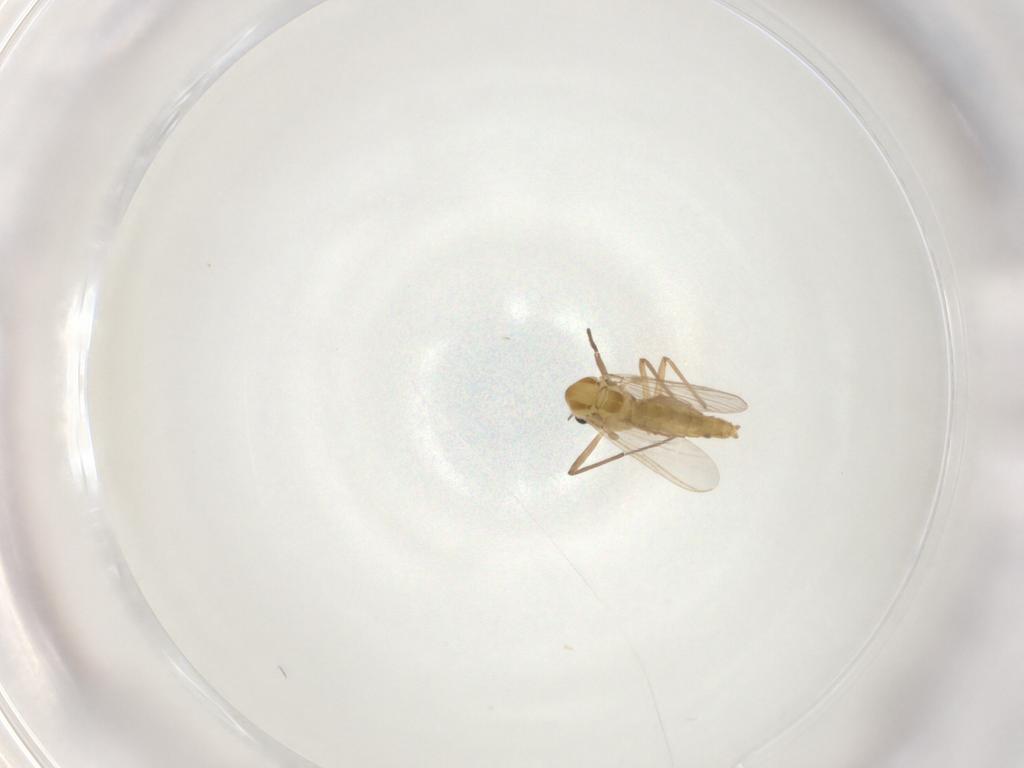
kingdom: Animalia
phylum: Arthropoda
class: Insecta
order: Diptera
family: Chironomidae
